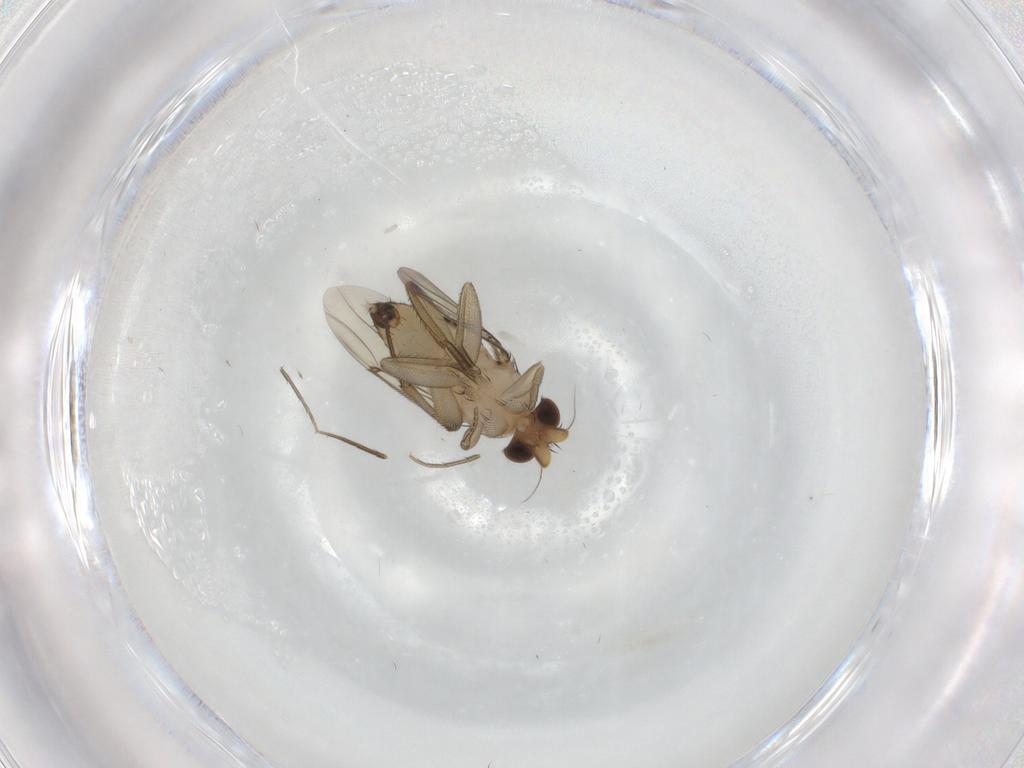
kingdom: Animalia
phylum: Arthropoda
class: Insecta
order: Diptera
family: Phoridae
